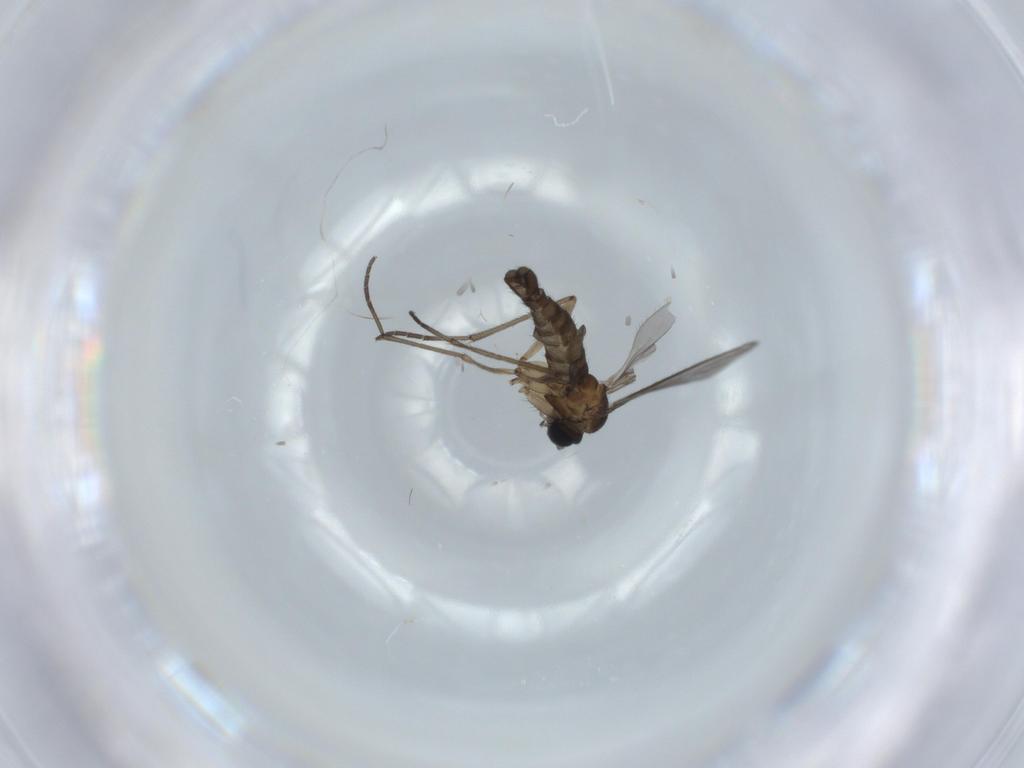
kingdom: Animalia
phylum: Arthropoda
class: Insecta
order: Diptera
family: Sciaridae
